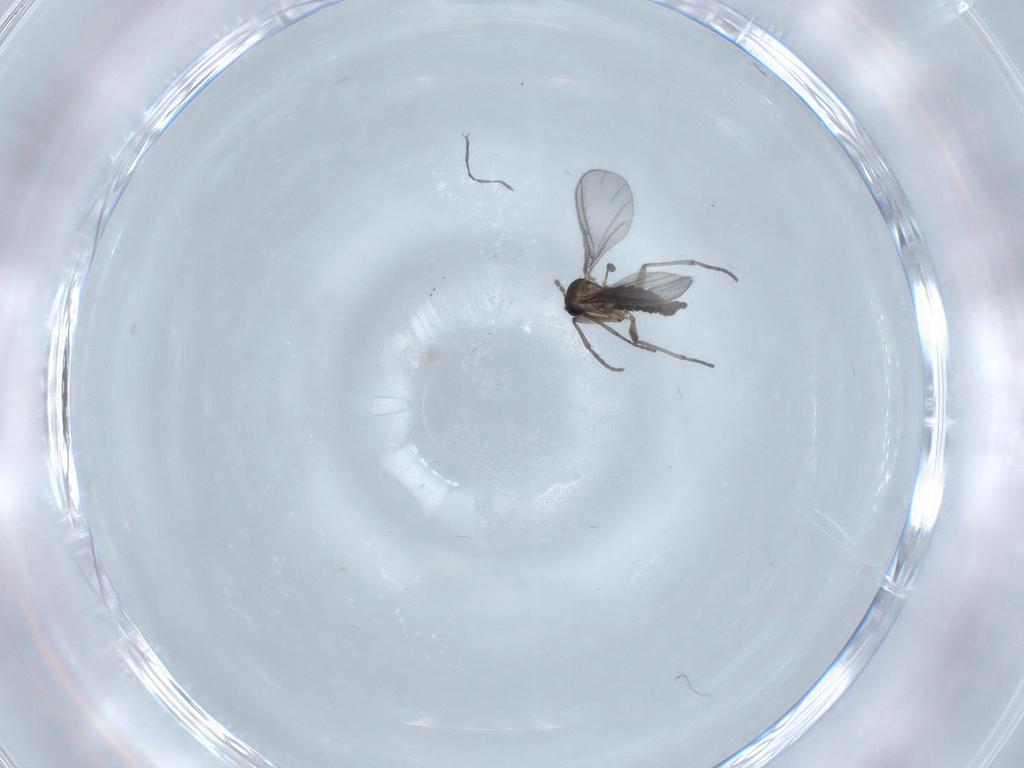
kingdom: Animalia
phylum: Arthropoda
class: Insecta
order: Diptera
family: Sciaridae
